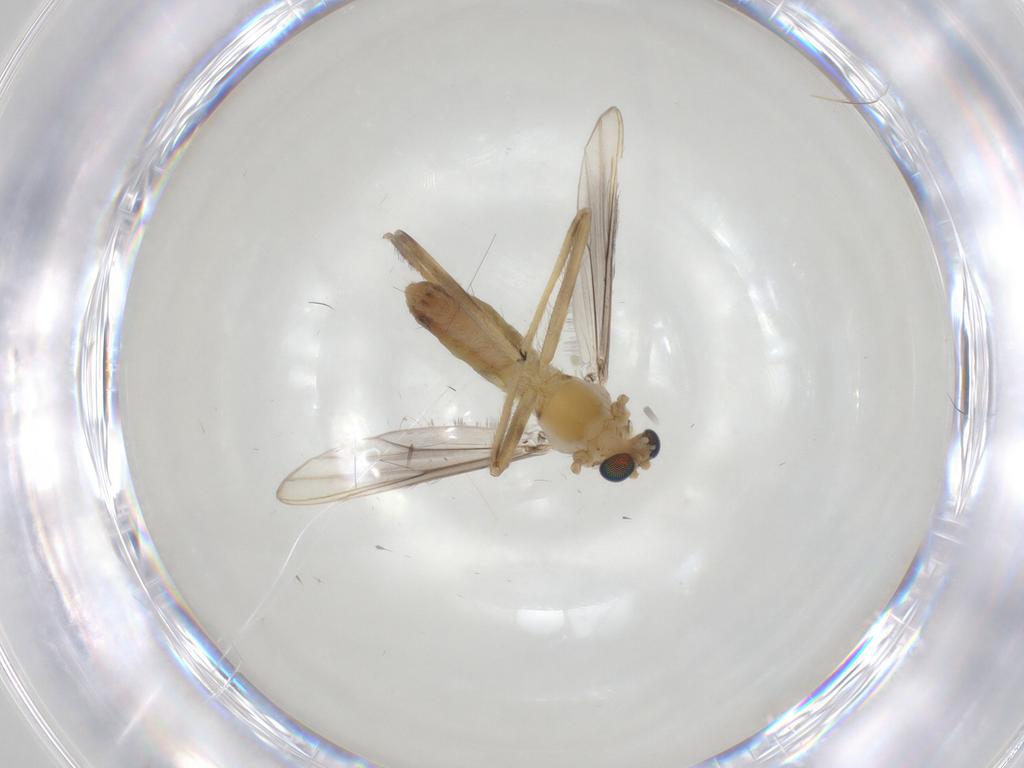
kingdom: Animalia
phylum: Arthropoda
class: Insecta
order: Diptera
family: Chironomidae
